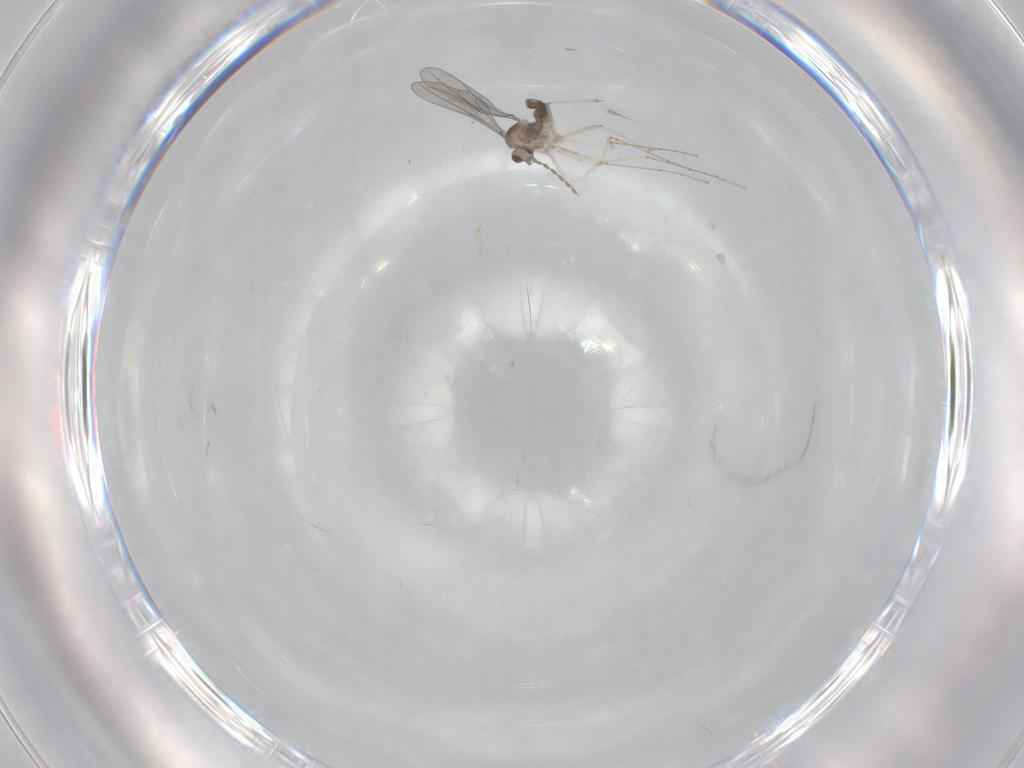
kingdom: Animalia
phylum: Arthropoda
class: Insecta
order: Diptera
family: Cecidomyiidae
